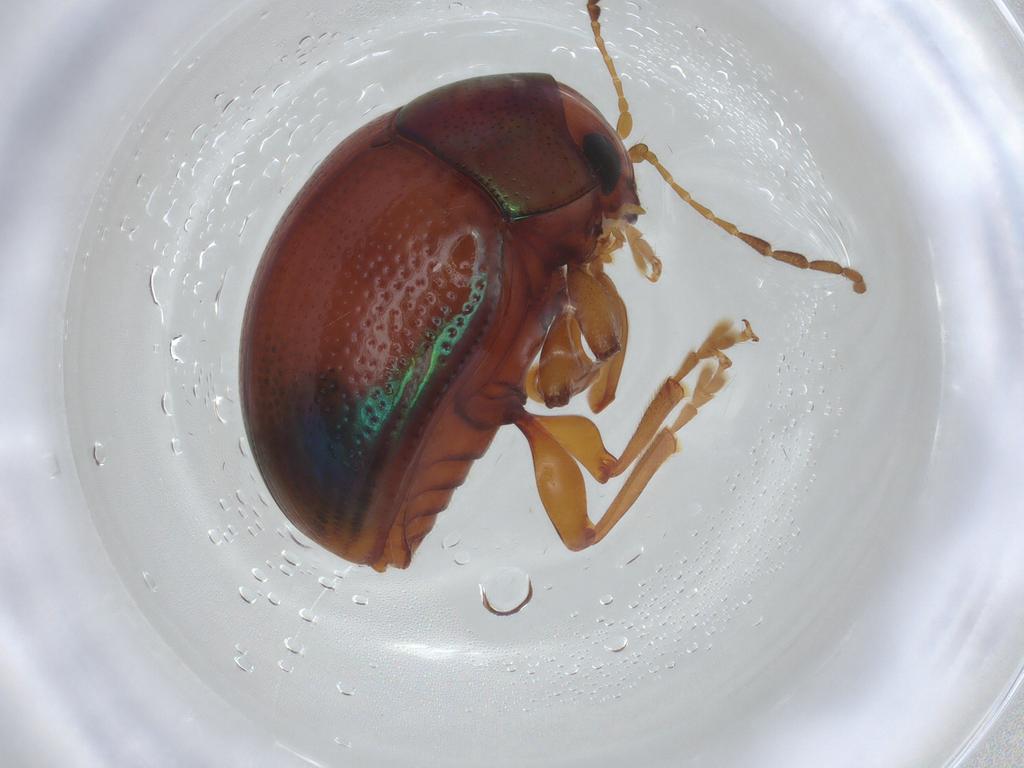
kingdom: Animalia
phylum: Arthropoda
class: Insecta
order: Coleoptera
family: Chrysomelidae
